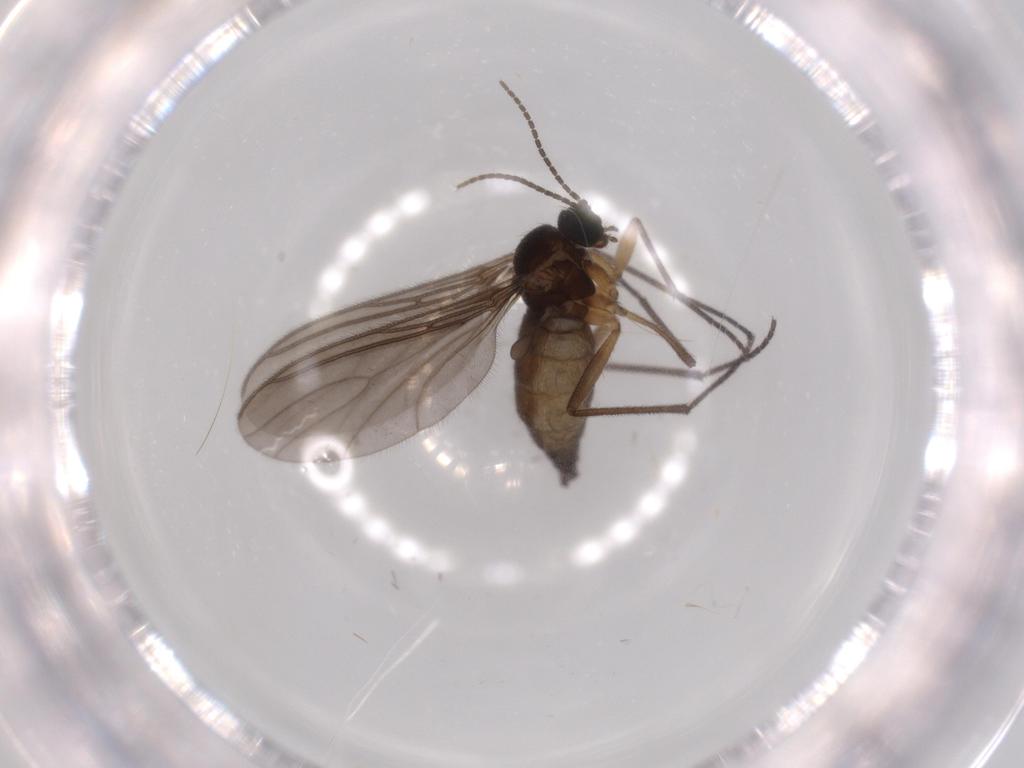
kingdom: Animalia
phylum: Arthropoda
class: Insecta
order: Diptera
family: Sciaridae
